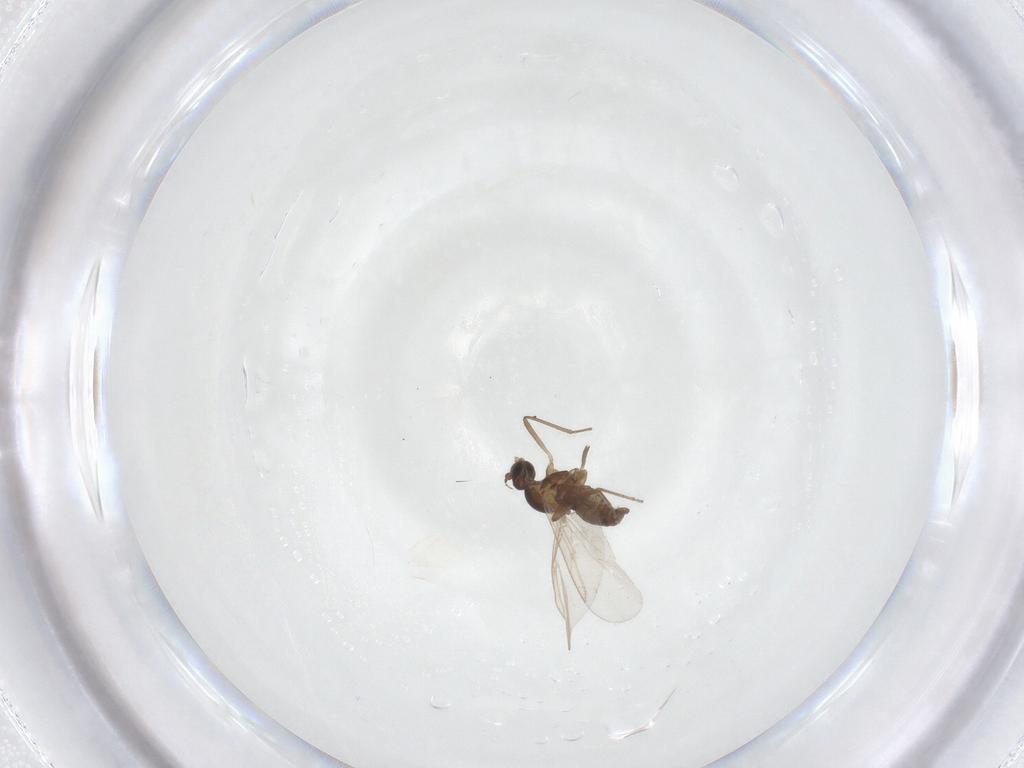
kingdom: Animalia
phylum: Arthropoda
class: Insecta
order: Diptera
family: Cecidomyiidae
